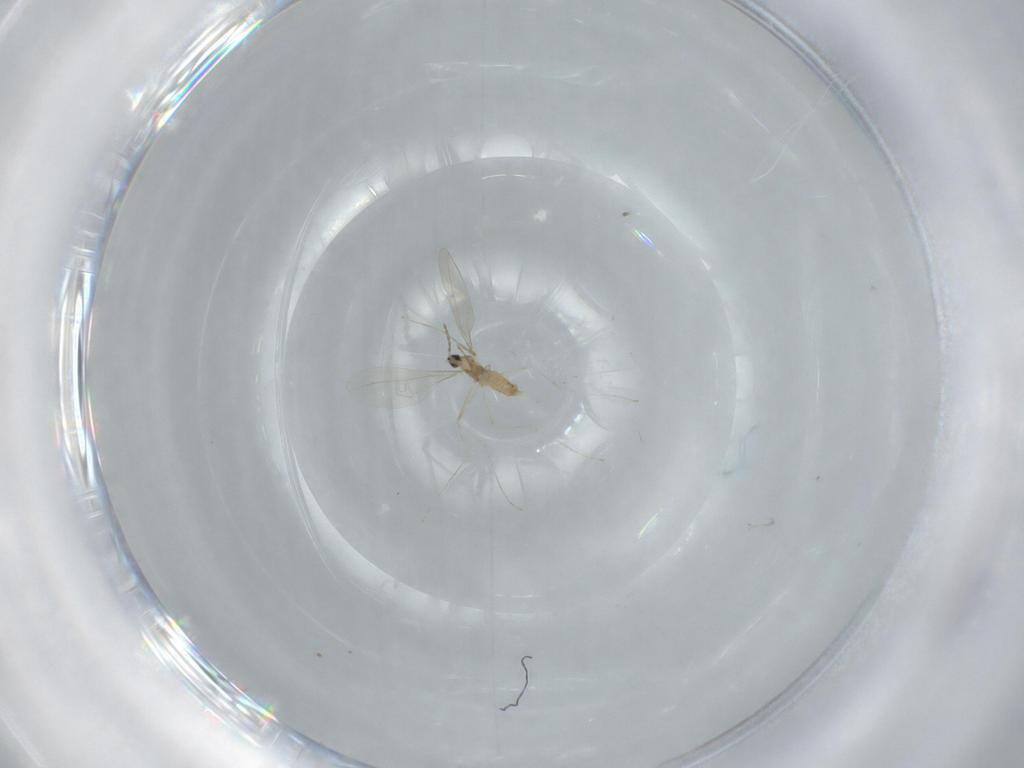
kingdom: Animalia
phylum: Arthropoda
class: Insecta
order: Diptera
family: Cecidomyiidae
